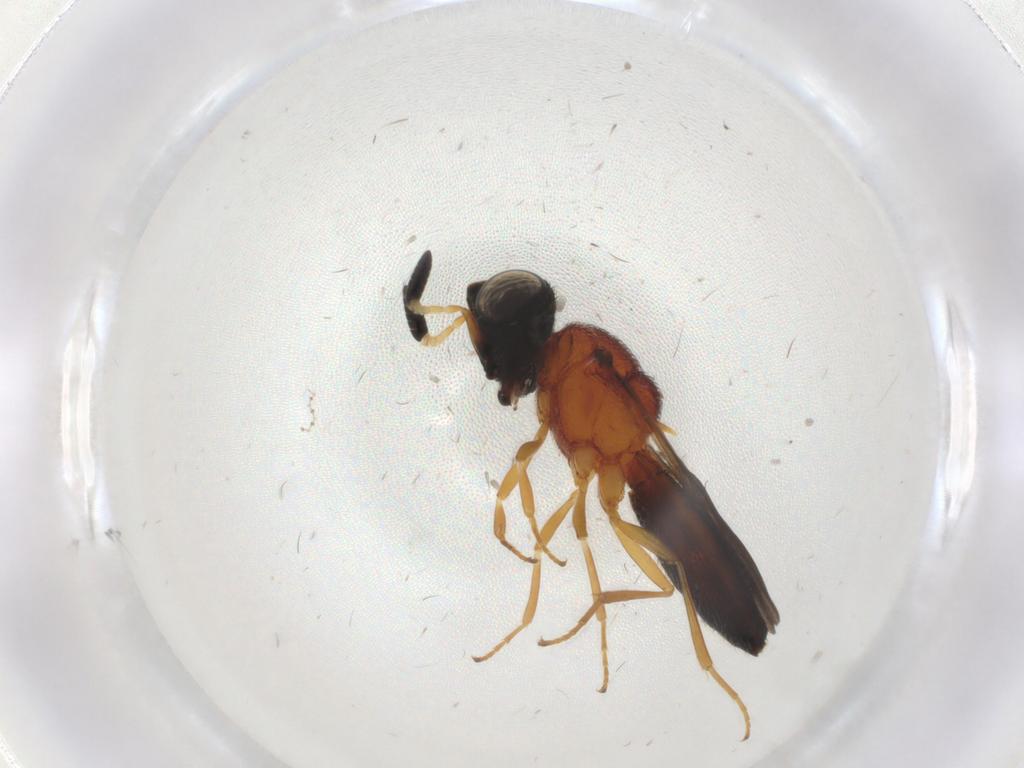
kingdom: Animalia
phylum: Arthropoda
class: Insecta
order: Hymenoptera
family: Scelionidae
